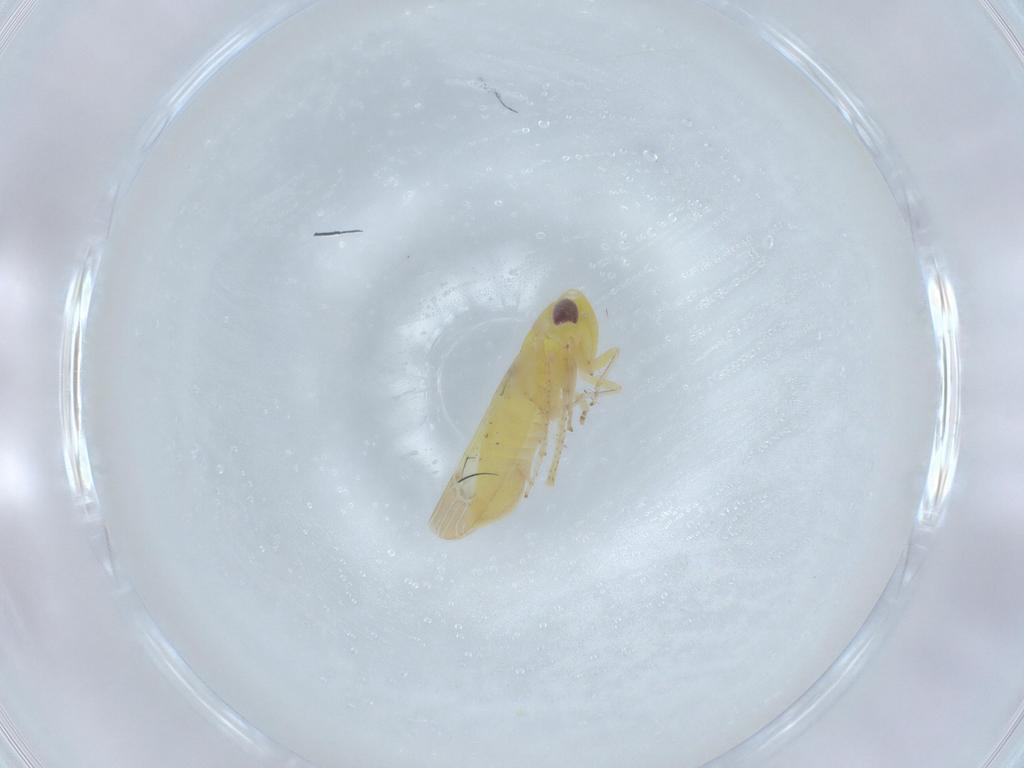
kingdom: Animalia
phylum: Arthropoda
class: Insecta
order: Hemiptera
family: Cicadellidae
